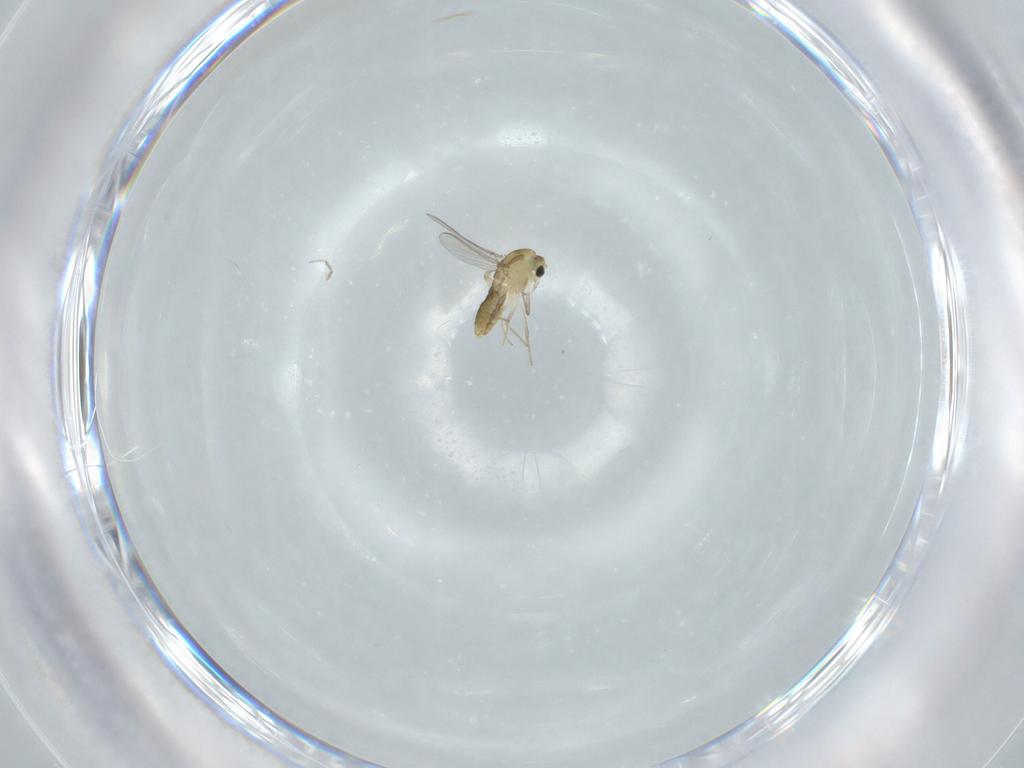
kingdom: Animalia
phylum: Arthropoda
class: Insecta
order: Diptera
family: Chironomidae
